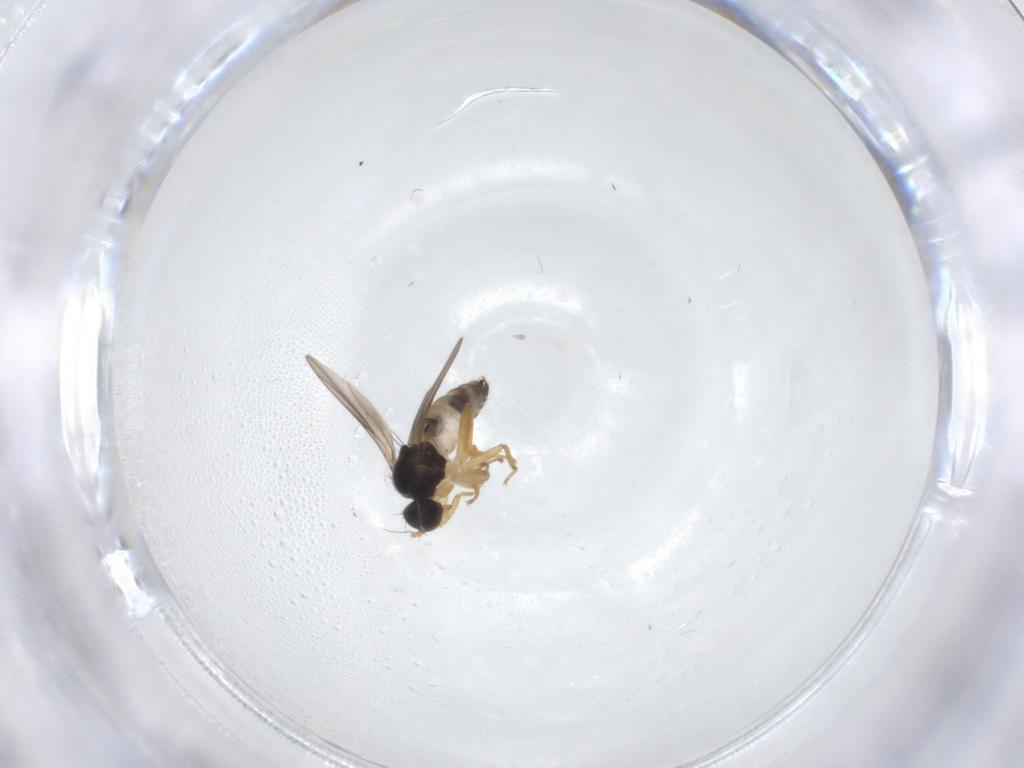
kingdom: Animalia
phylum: Arthropoda
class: Insecta
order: Diptera
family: Hybotidae
